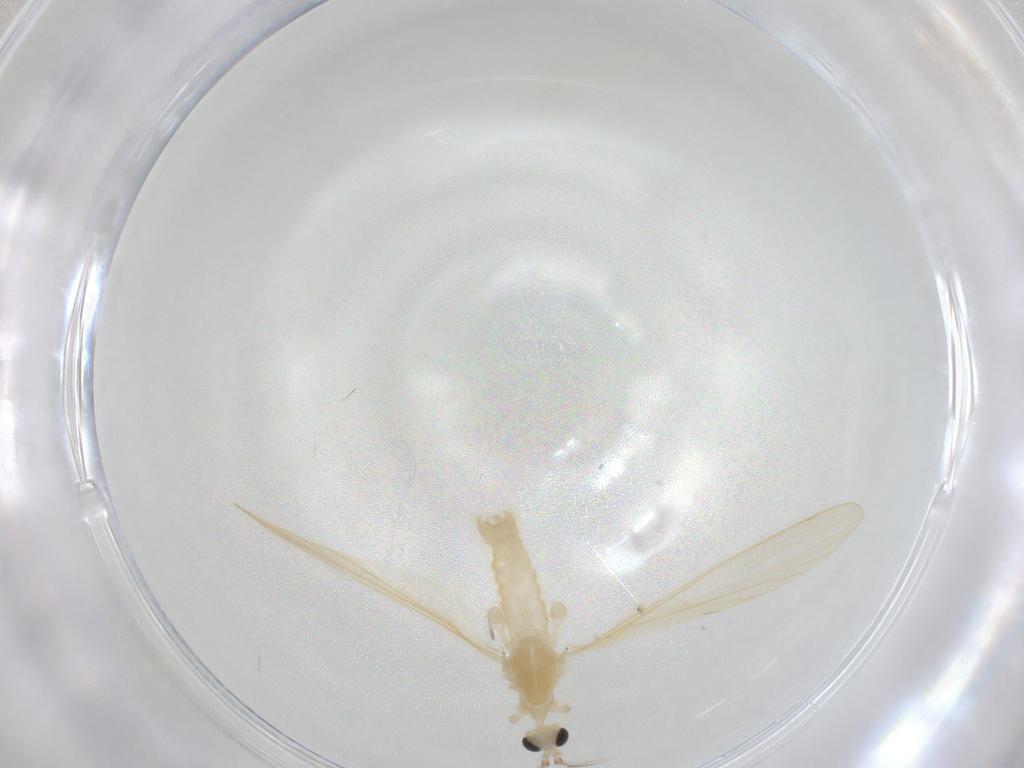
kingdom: Animalia
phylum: Arthropoda
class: Insecta
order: Diptera
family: Limoniidae
